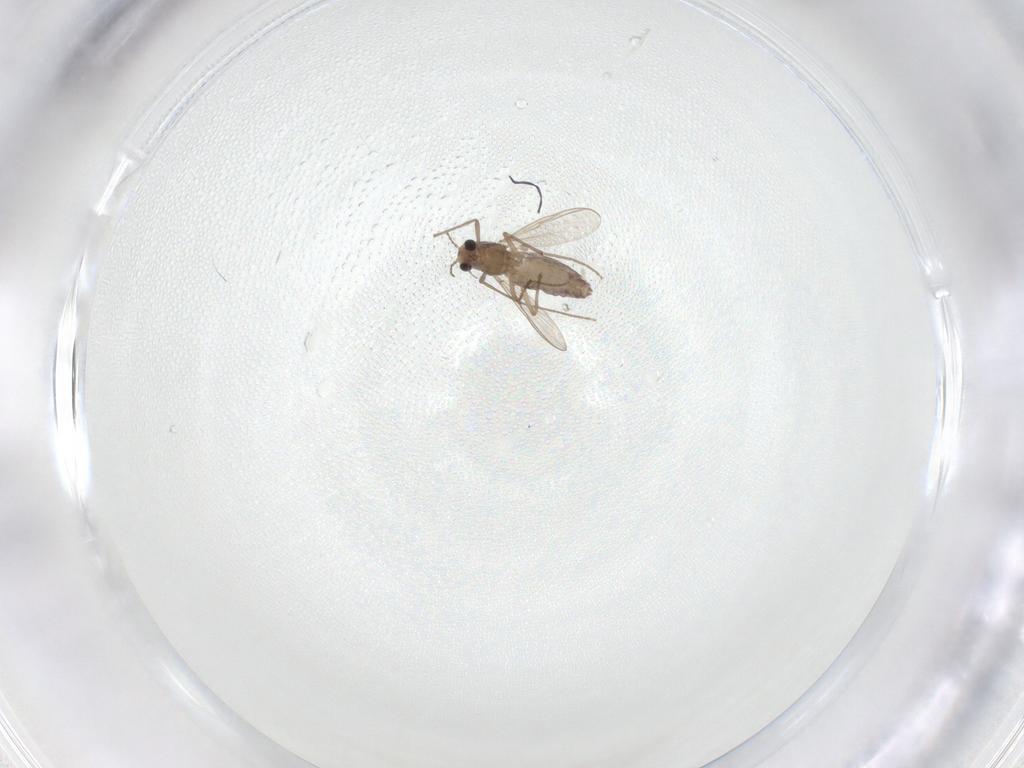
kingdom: Animalia
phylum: Arthropoda
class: Insecta
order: Diptera
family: Chironomidae
